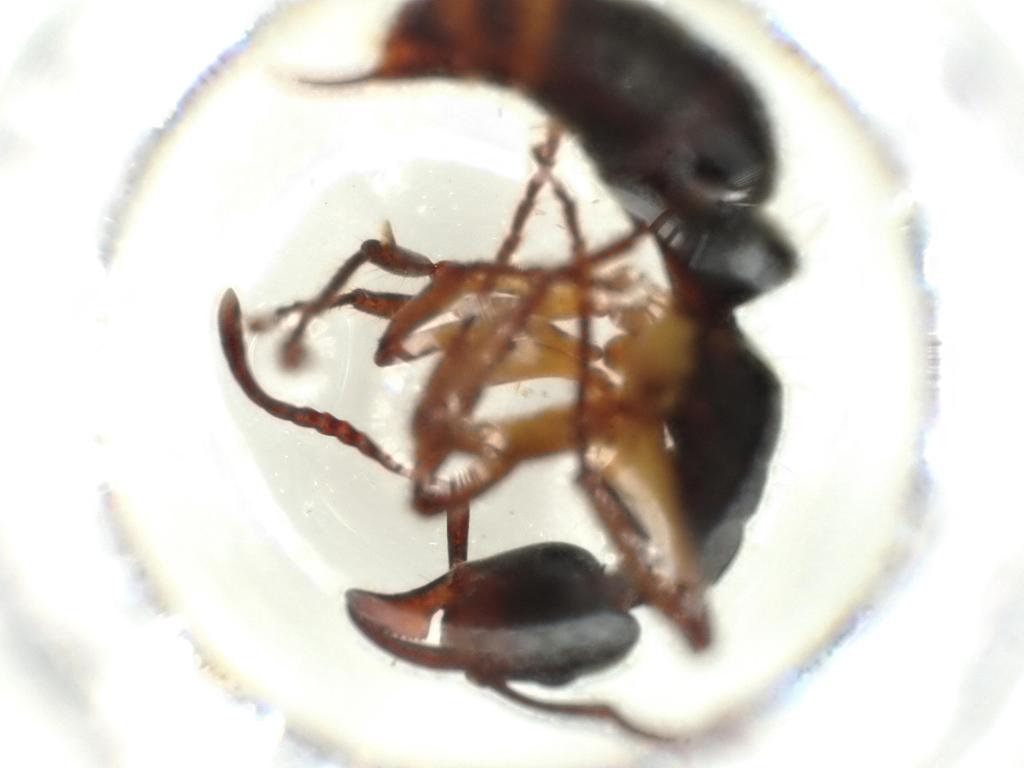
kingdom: Animalia
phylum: Arthropoda
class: Insecta
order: Hymenoptera
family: Formicidae
